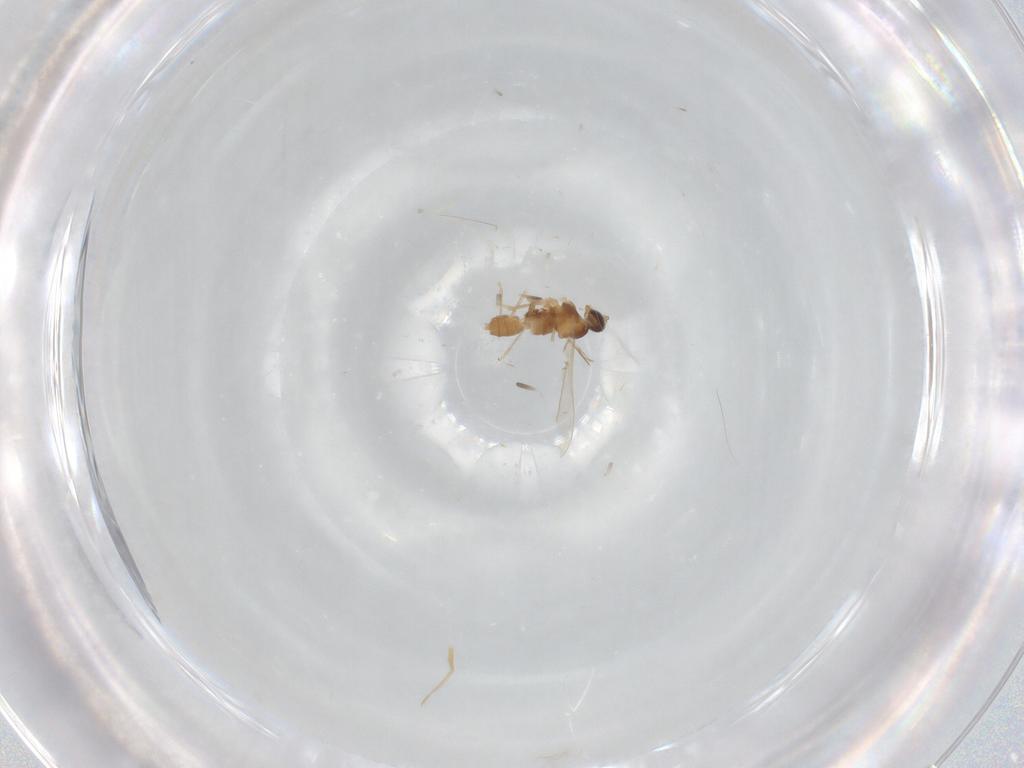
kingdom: Animalia
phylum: Arthropoda
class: Insecta
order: Diptera
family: Cecidomyiidae
